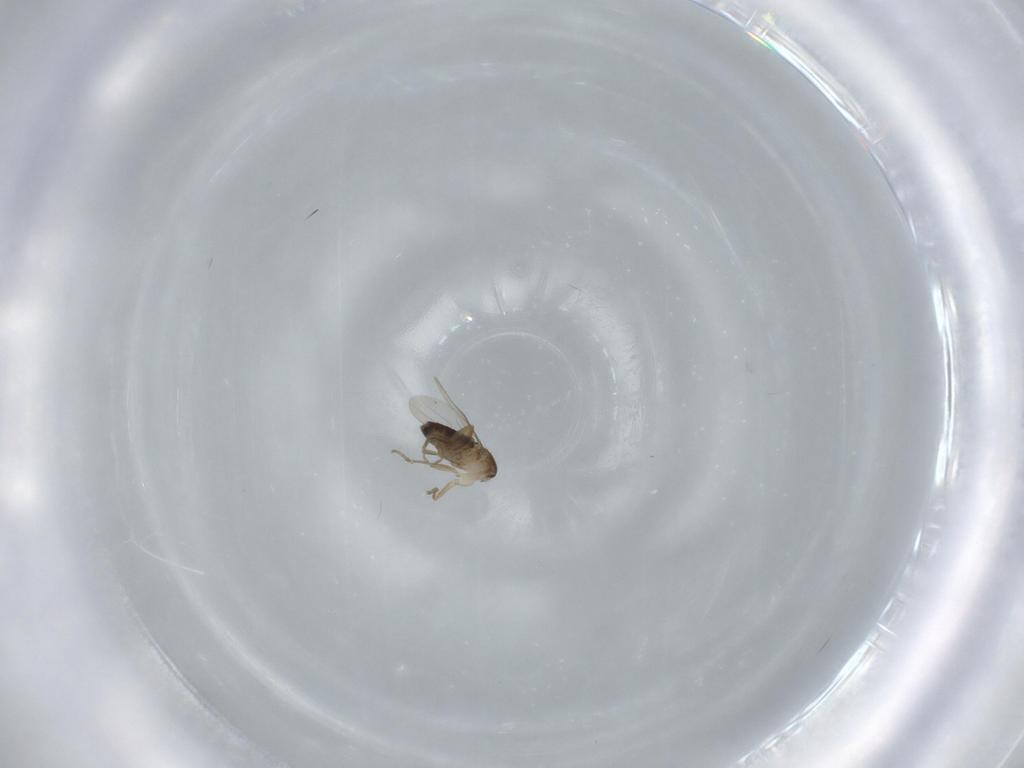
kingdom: Animalia
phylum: Arthropoda
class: Insecta
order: Diptera
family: Phoridae
